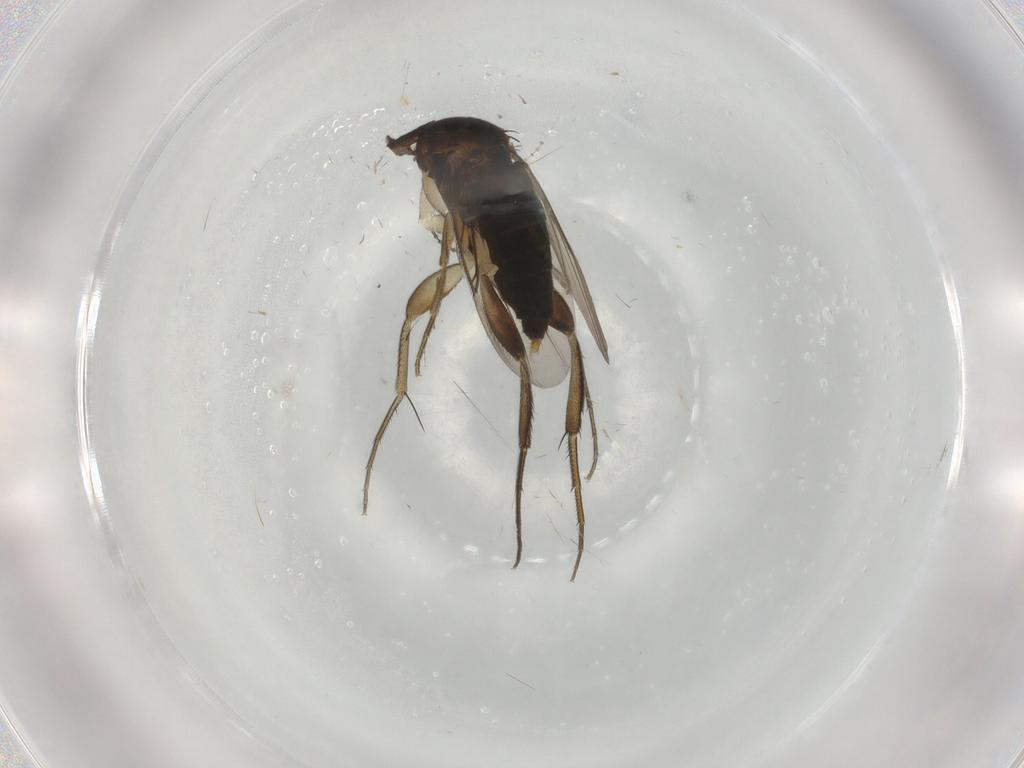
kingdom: Animalia
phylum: Arthropoda
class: Insecta
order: Diptera
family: Phoridae
